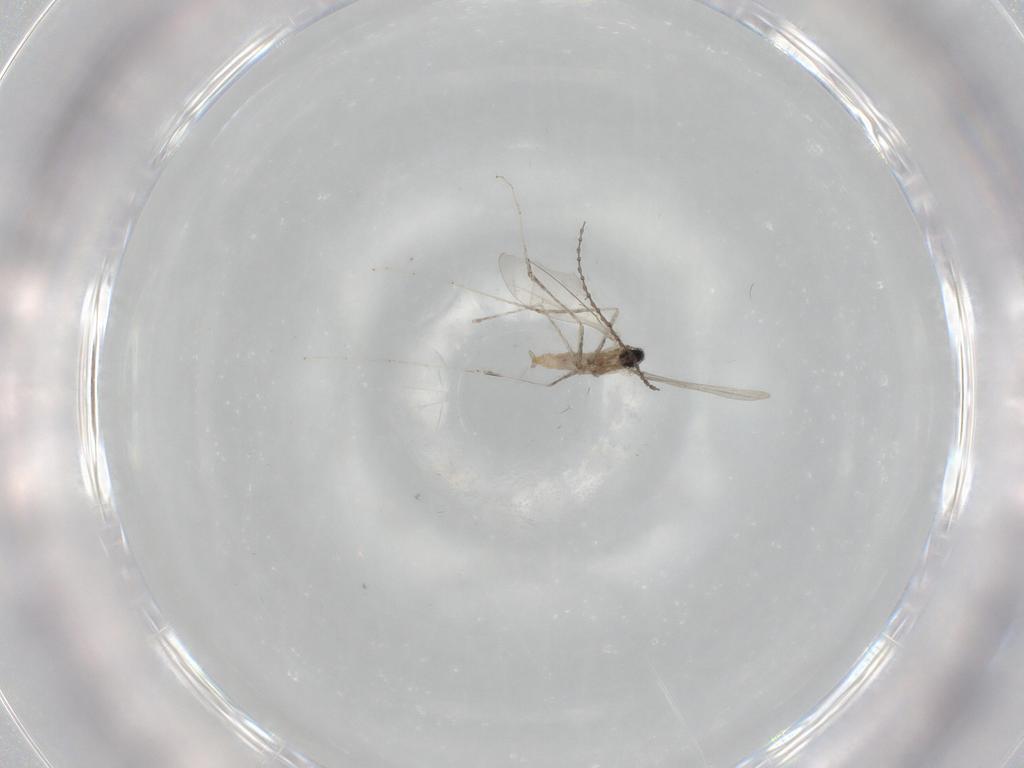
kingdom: Animalia
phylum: Arthropoda
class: Insecta
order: Diptera
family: Cecidomyiidae
